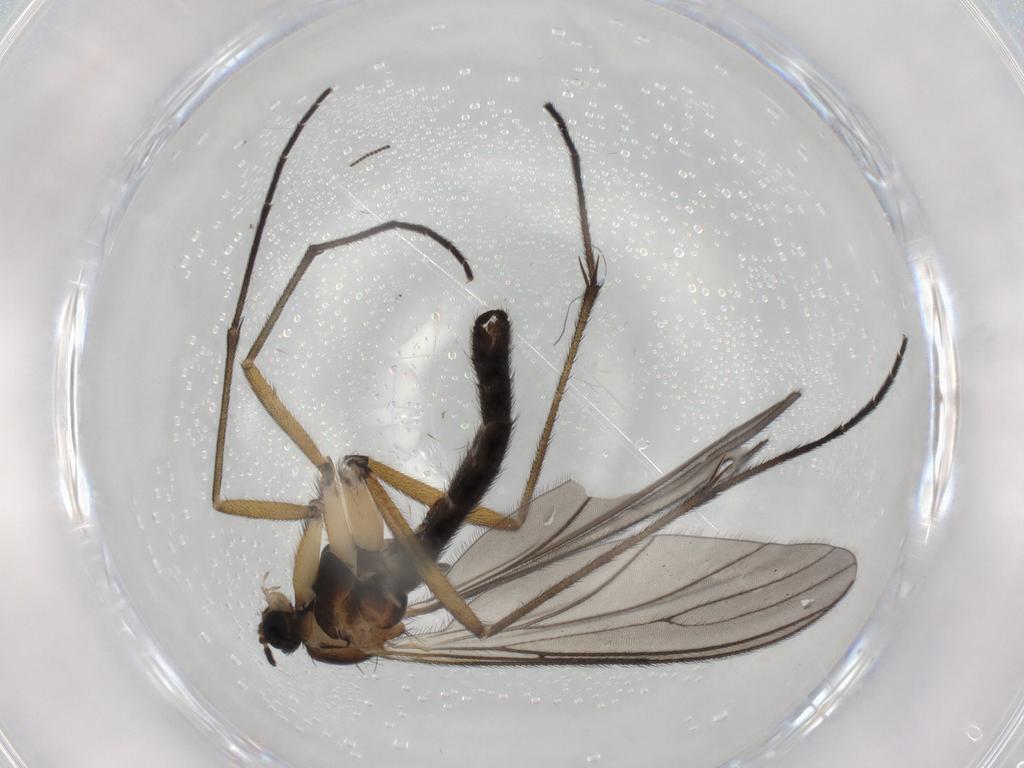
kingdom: Animalia
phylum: Arthropoda
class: Insecta
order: Diptera
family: Sciaridae
